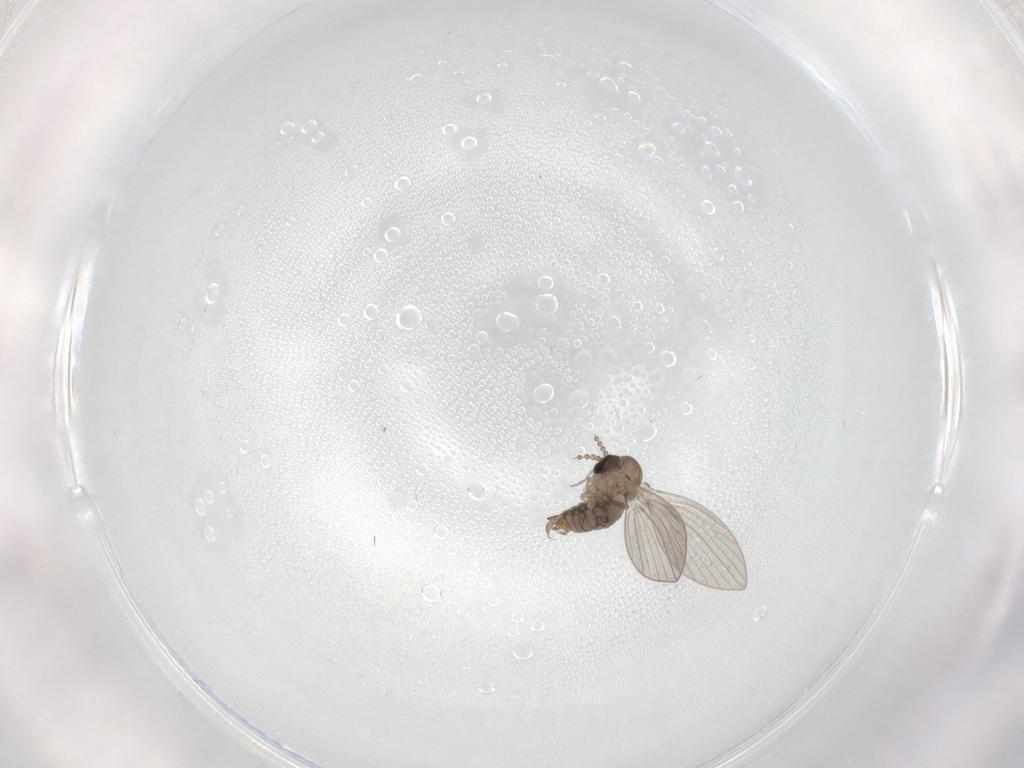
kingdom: Animalia
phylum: Arthropoda
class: Insecta
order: Diptera
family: Psychodidae
